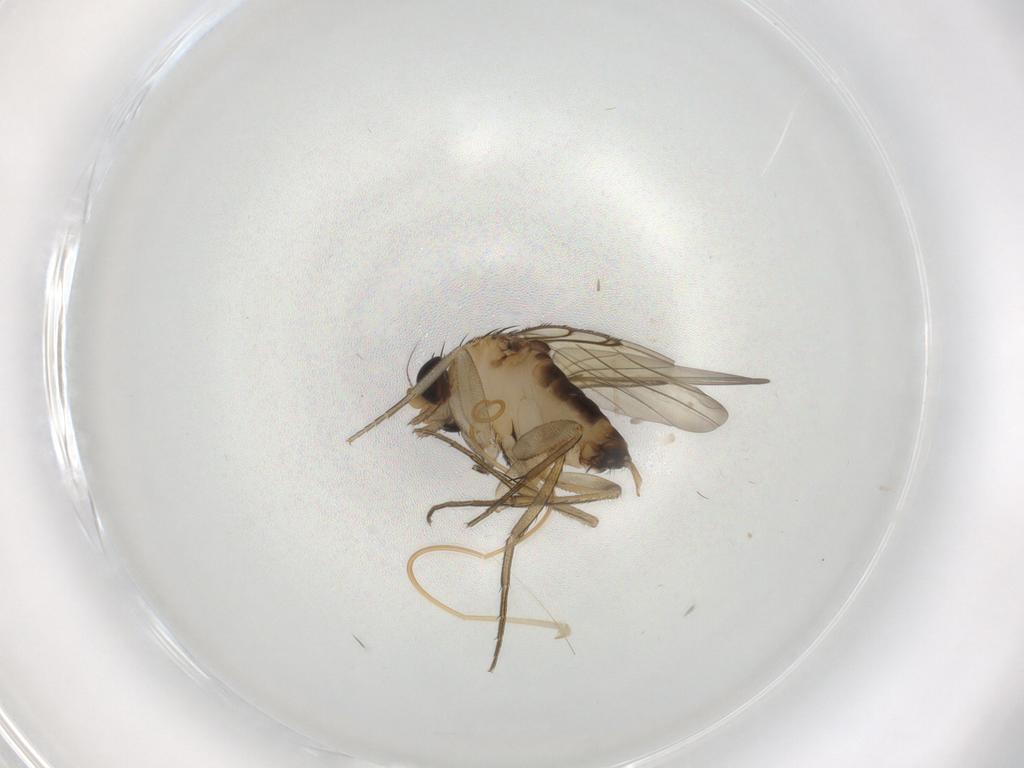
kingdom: Animalia
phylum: Arthropoda
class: Insecta
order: Diptera
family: Phoridae
